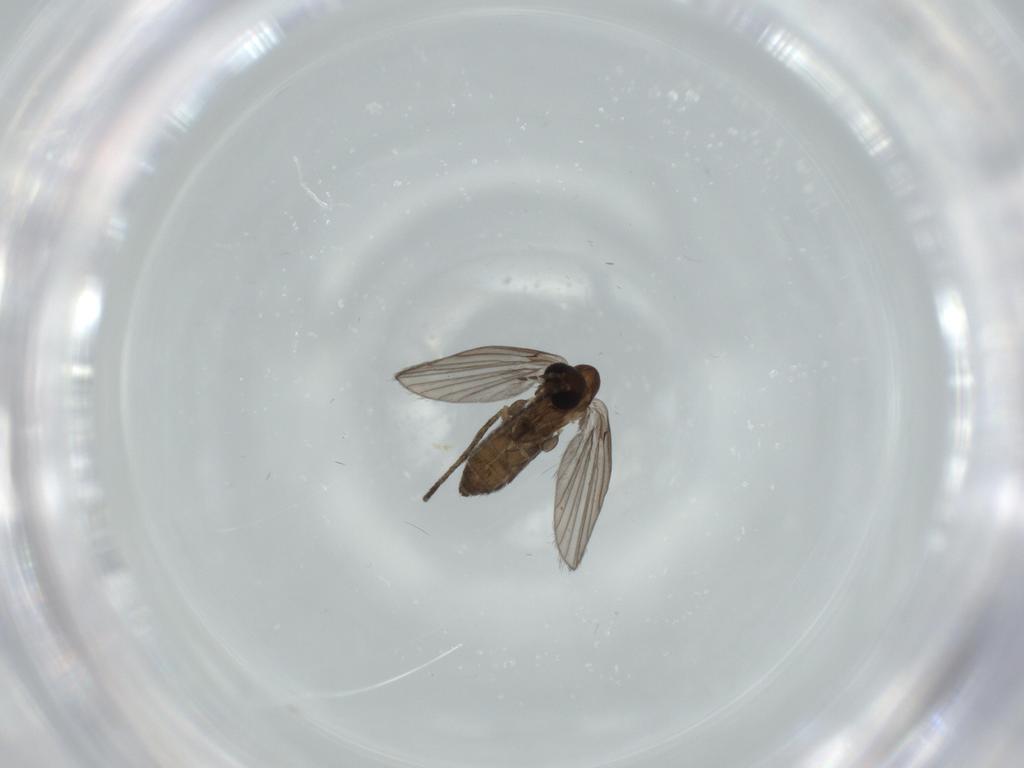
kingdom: Animalia
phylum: Arthropoda
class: Insecta
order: Diptera
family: Psychodidae
